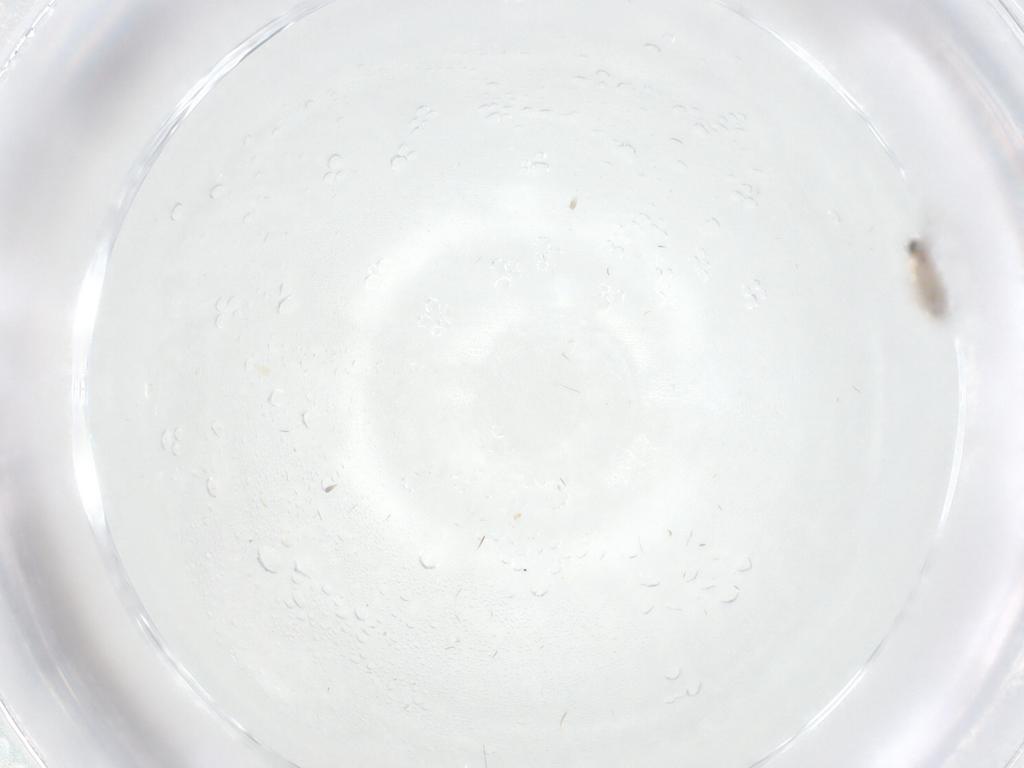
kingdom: Animalia
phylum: Arthropoda
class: Insecta
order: Hymenoptera
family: Mymaridae
